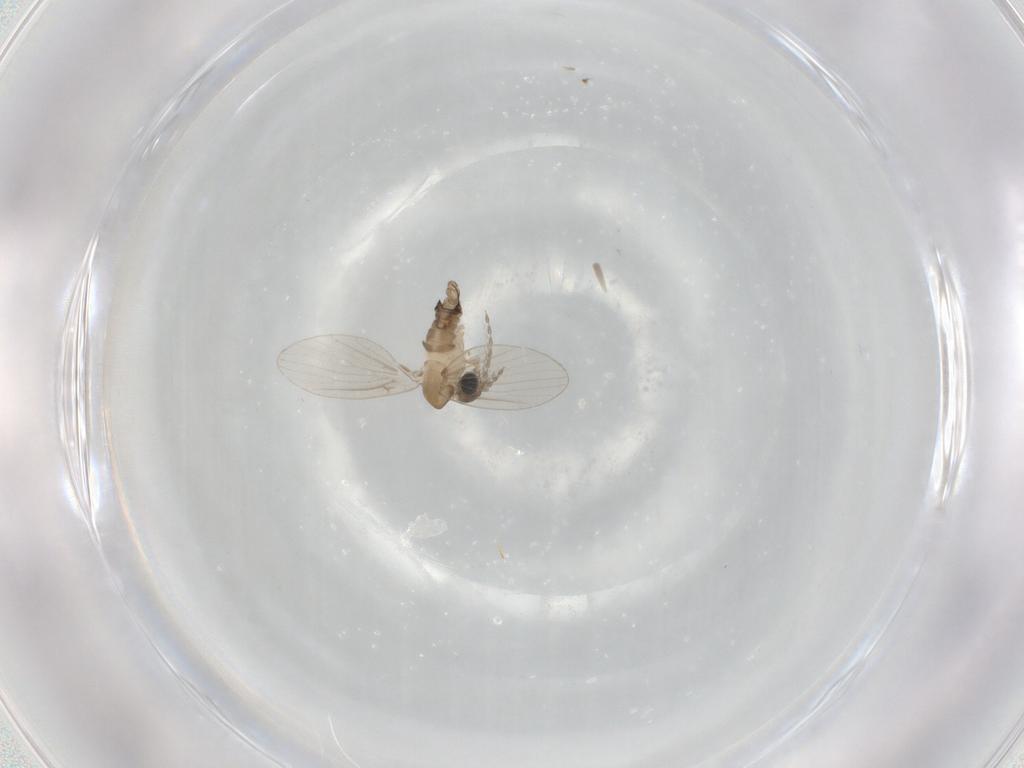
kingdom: Animalia
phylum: Arthropoda
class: Insecta
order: Diptera
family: Psychodidae
